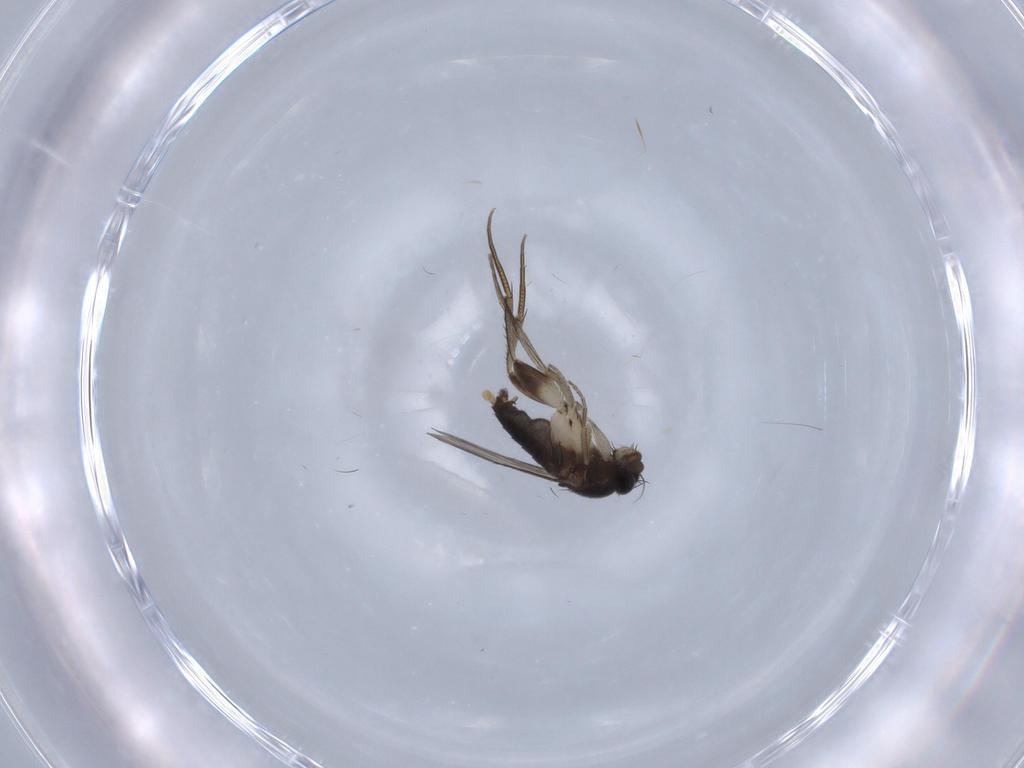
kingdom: Animalia
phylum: Arthropoda
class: Insecta
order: Diptera
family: Phoridae
